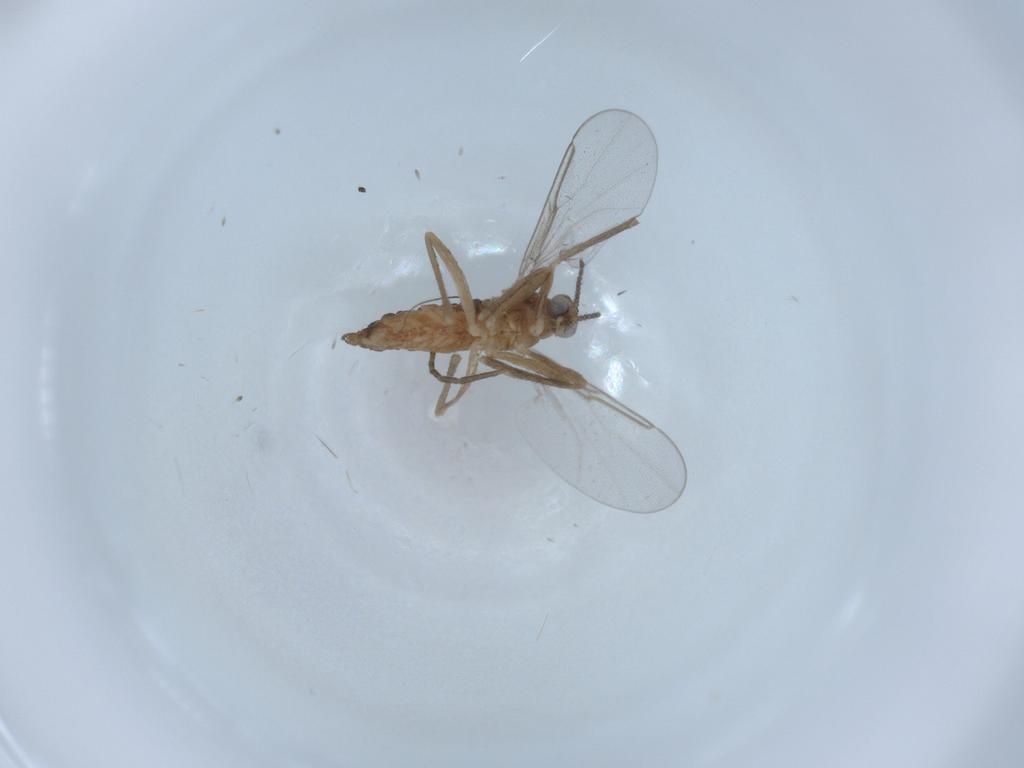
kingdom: Animalia
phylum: Arthropoda
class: Insecta
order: Diptera
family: Cecidomyiidae
